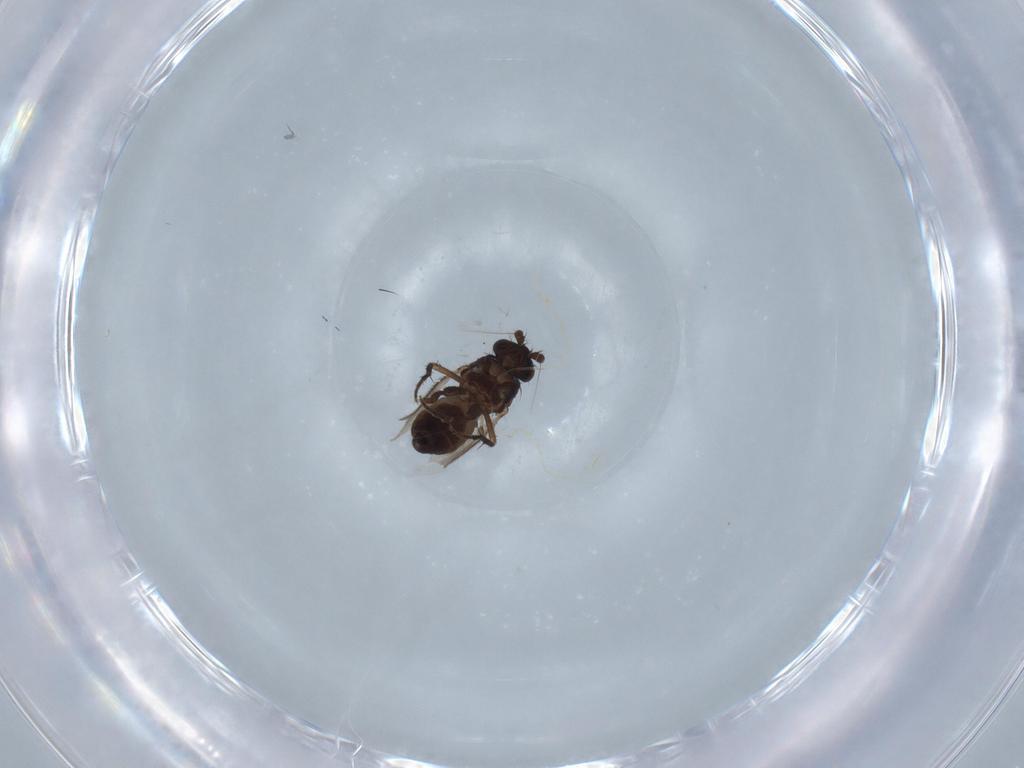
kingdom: Animalia
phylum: Arthropoda
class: Insecta
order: Diptera
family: Sphaeroceridae
